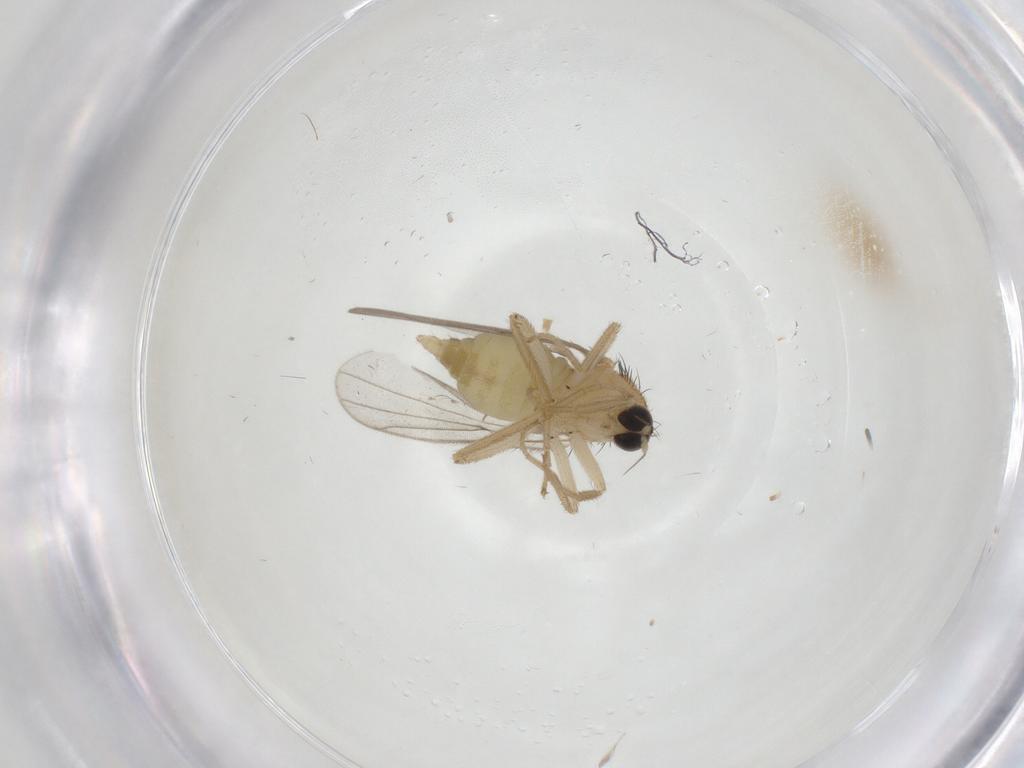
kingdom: Animalia
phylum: Arthropoda
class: Insecta
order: Diptera
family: Hybotidae
